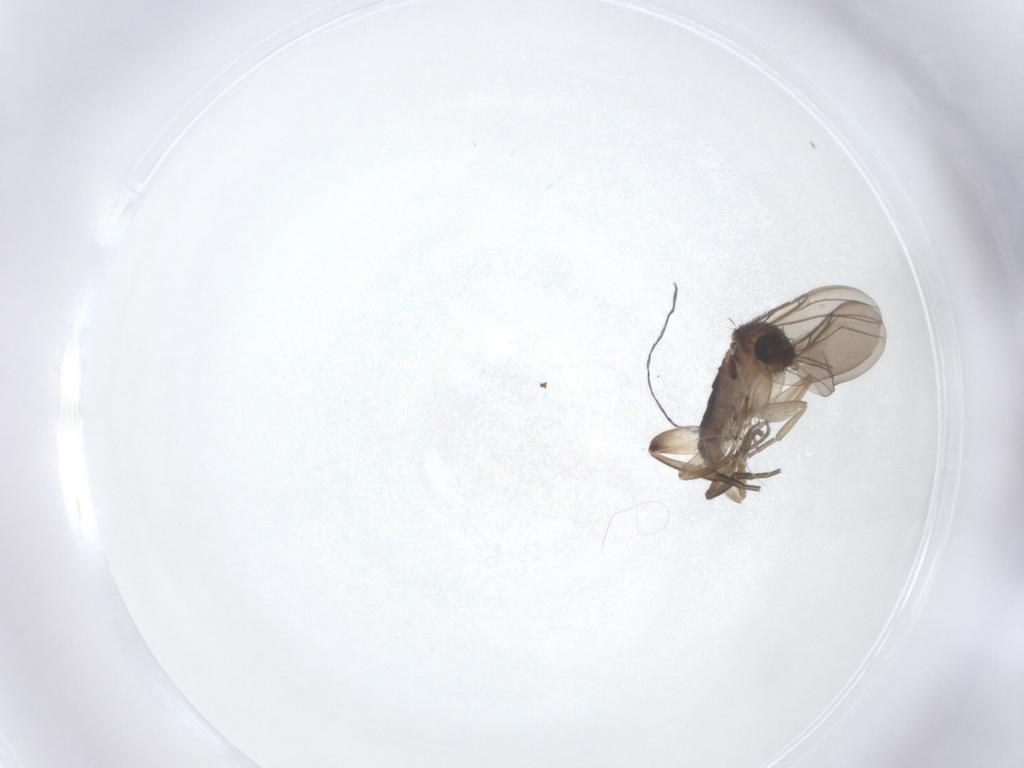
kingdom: Animalia
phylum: Arthropoda
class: Insecta
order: Diptera
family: Phoridae
